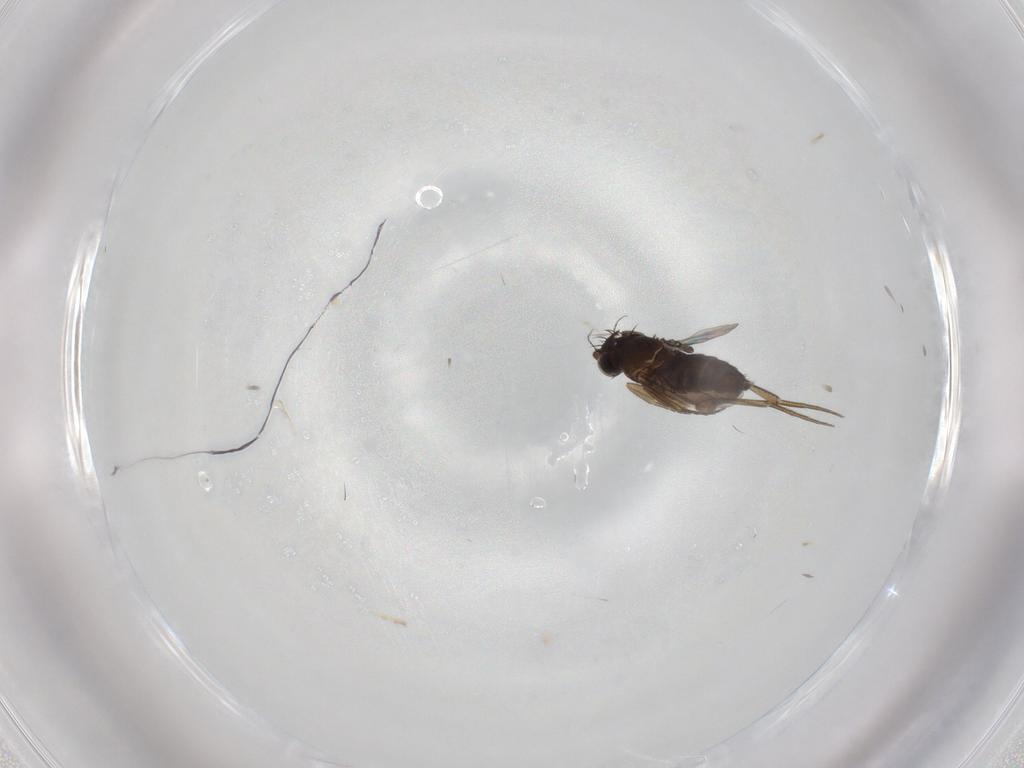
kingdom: Animalia
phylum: Arthropoda
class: Insecta
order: Diptera
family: Phoridae
